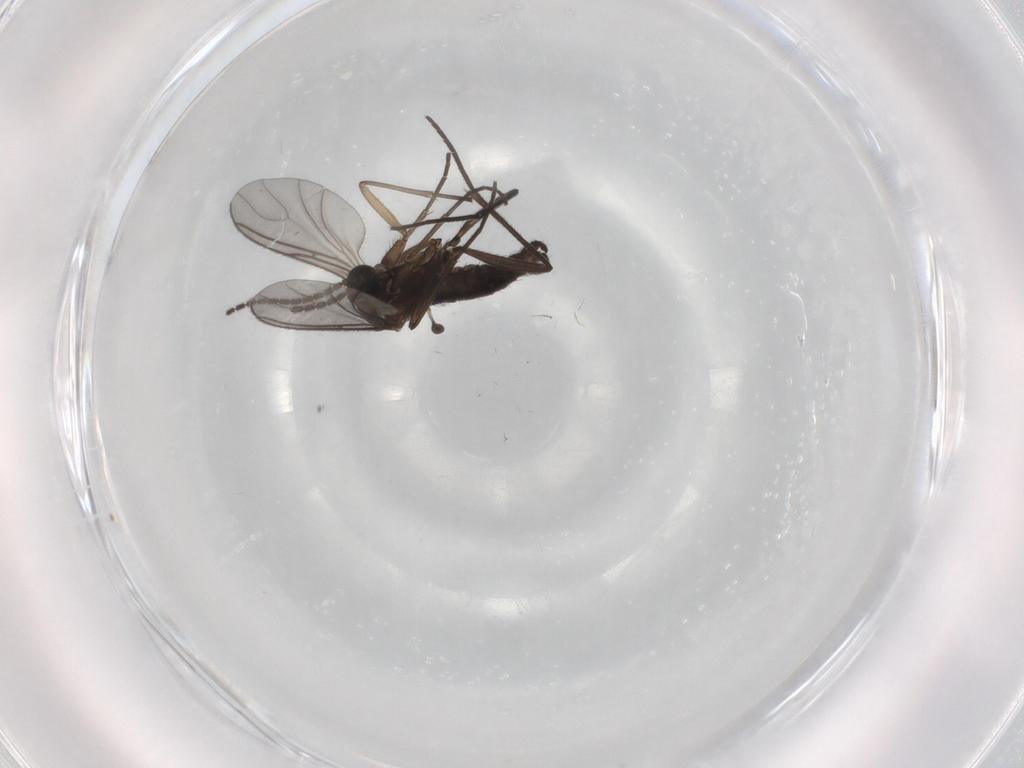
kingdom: Animalia
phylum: Arthropoda
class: Insecta
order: Diptera
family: Sciaridae
